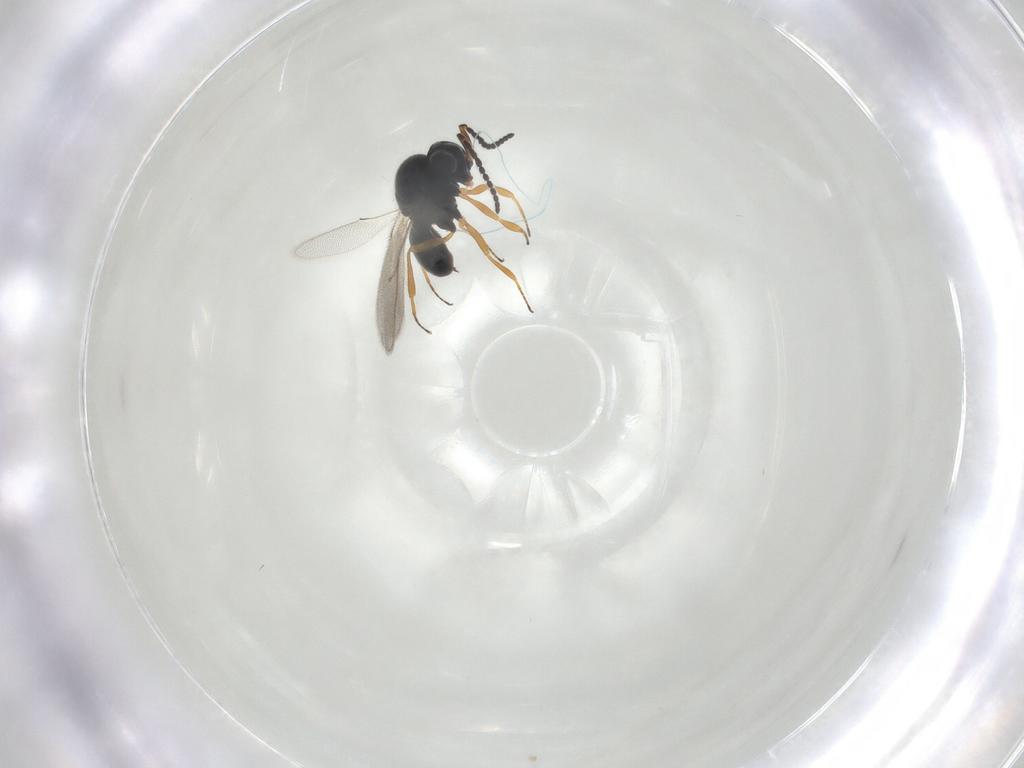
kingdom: Animalia
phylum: Arthropoda
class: Insecta
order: Hymenoptera
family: Scelionidae
